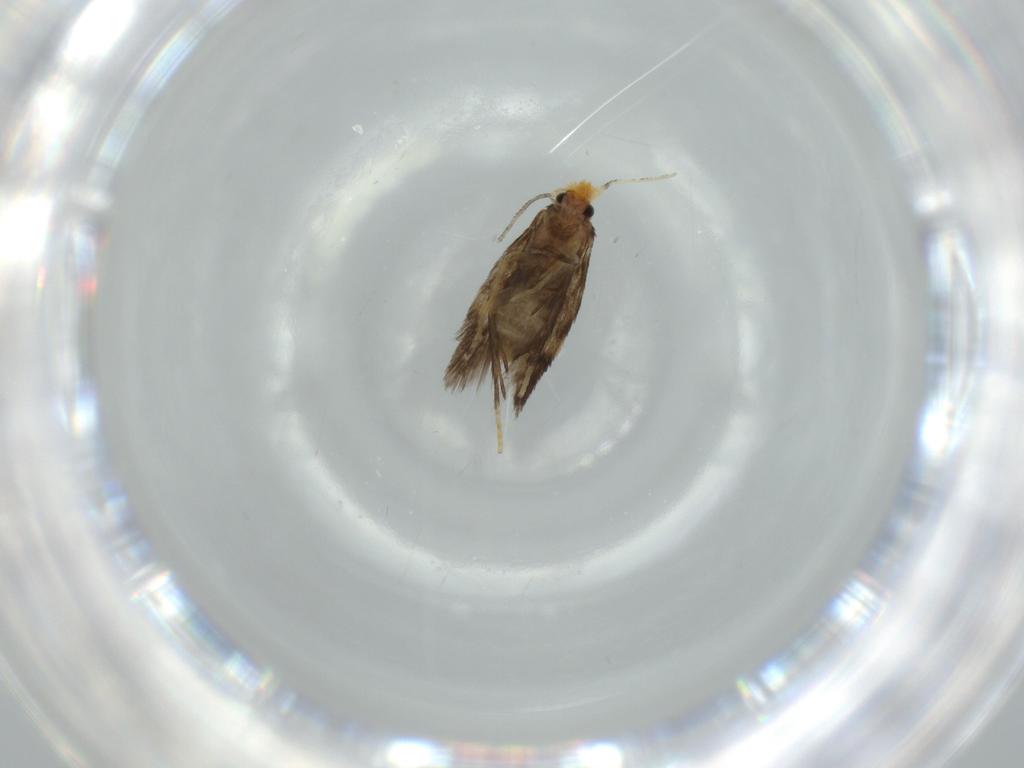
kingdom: Animalia
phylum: Arthropoda
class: Insecta
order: Lepidoptera
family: Nepticulidae
